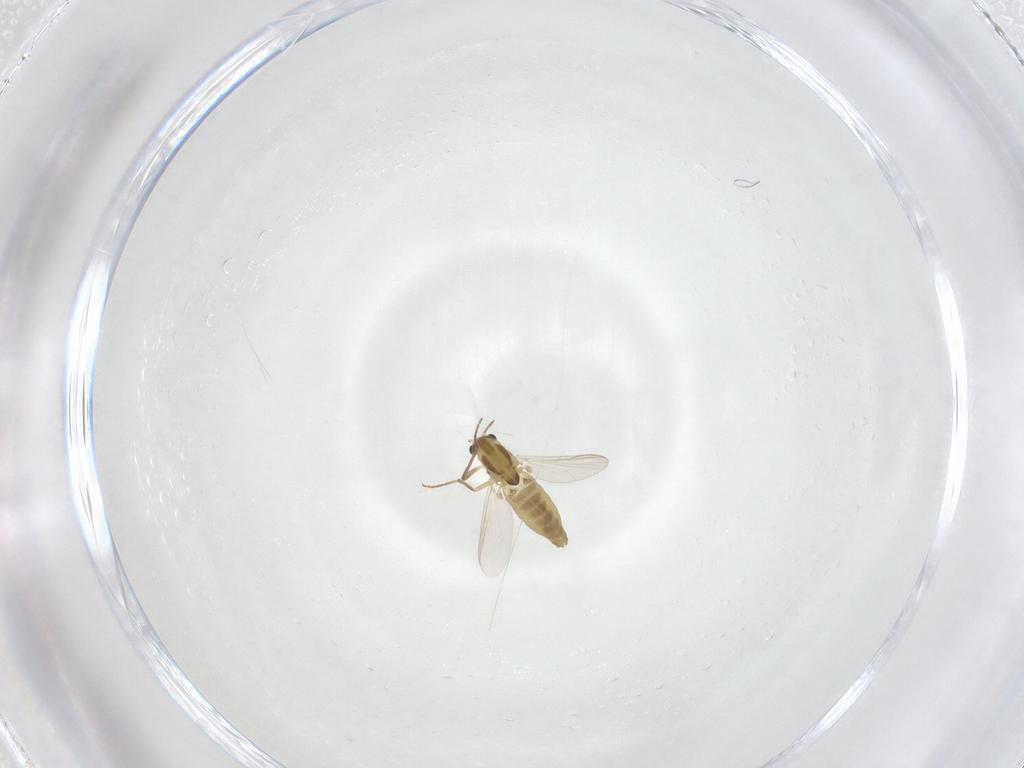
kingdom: Animalia
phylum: Arthropoda
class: Insecta
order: Diptera
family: Chironomidae
